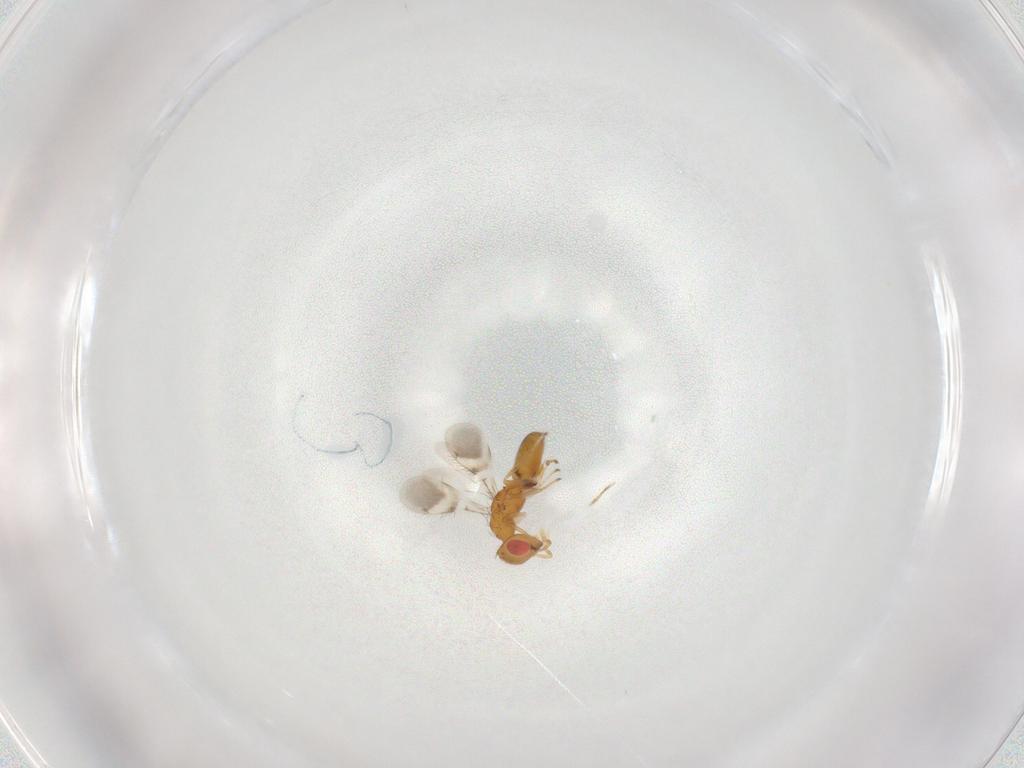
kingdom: Animalia
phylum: Arthropoda
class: Insecta
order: Hymenoptera
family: Eulophidae
